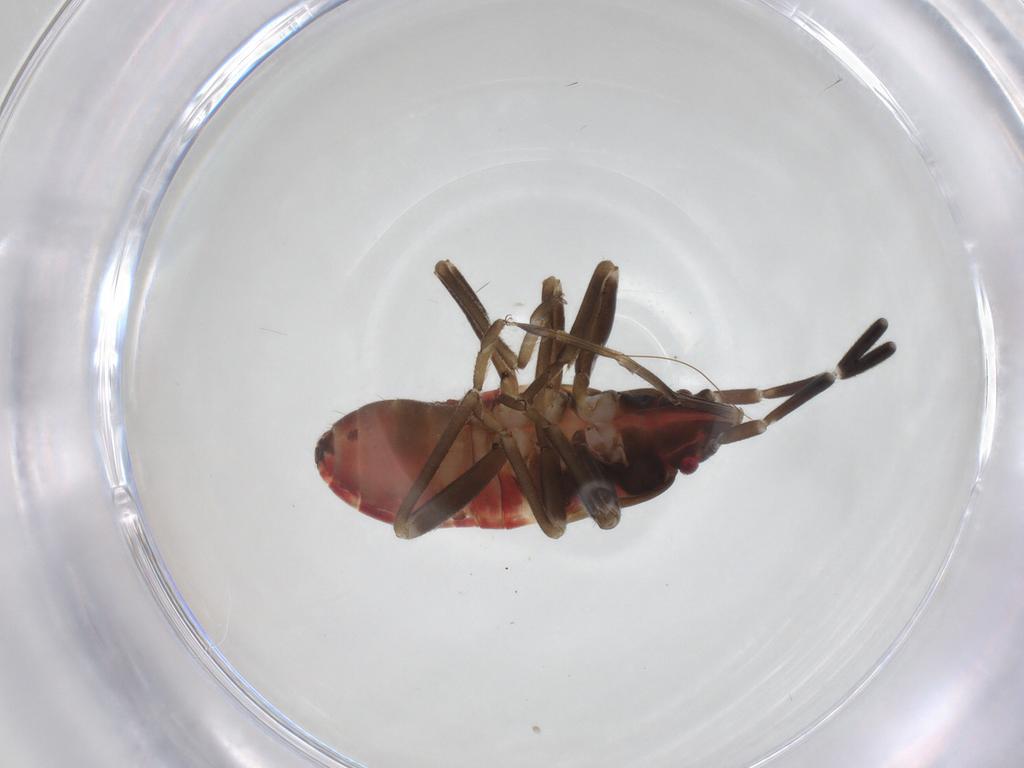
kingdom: Animalia
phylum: Arthropoda
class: Insecta
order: Hemiptera
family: Rhyparochromidae
